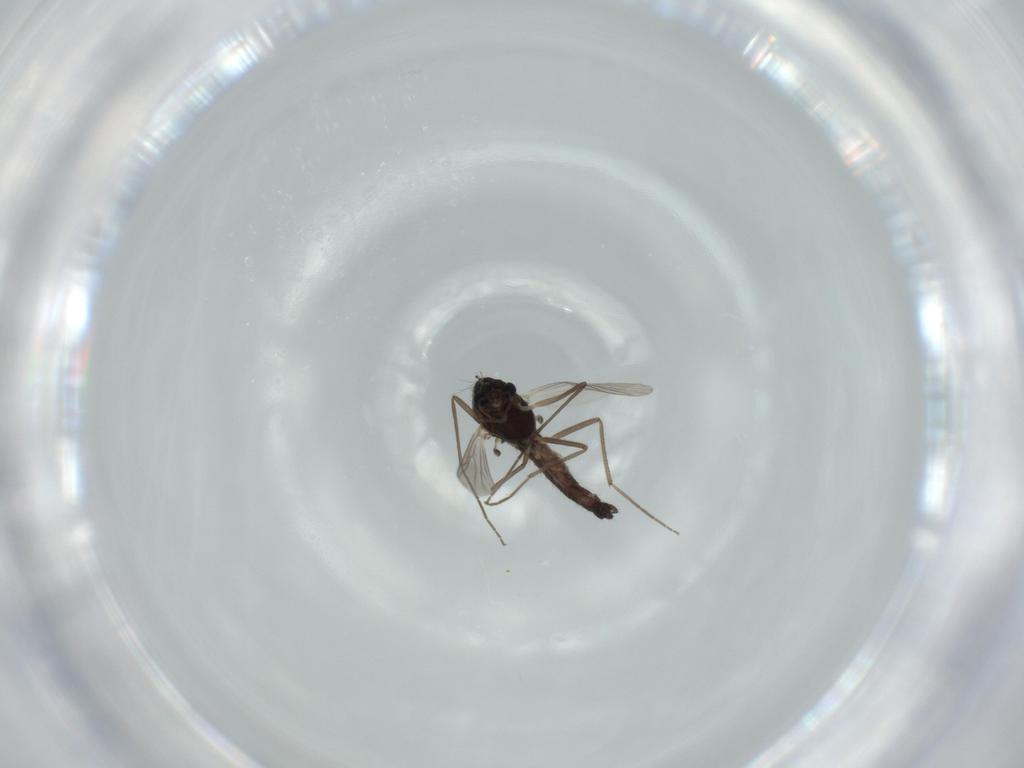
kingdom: Animalia
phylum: Arthropoda
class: Insecta
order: Diptera
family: Chironomidae
